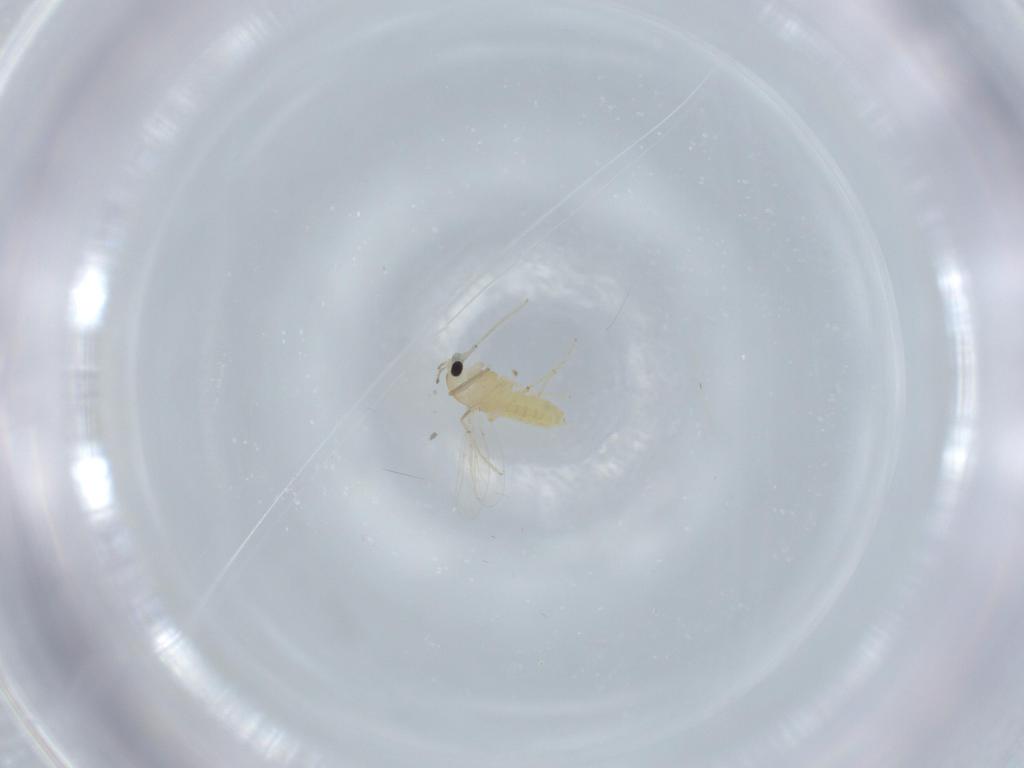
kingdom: Animalia
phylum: Arthropoda
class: Insecta
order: Diptera
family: Chironomidae
